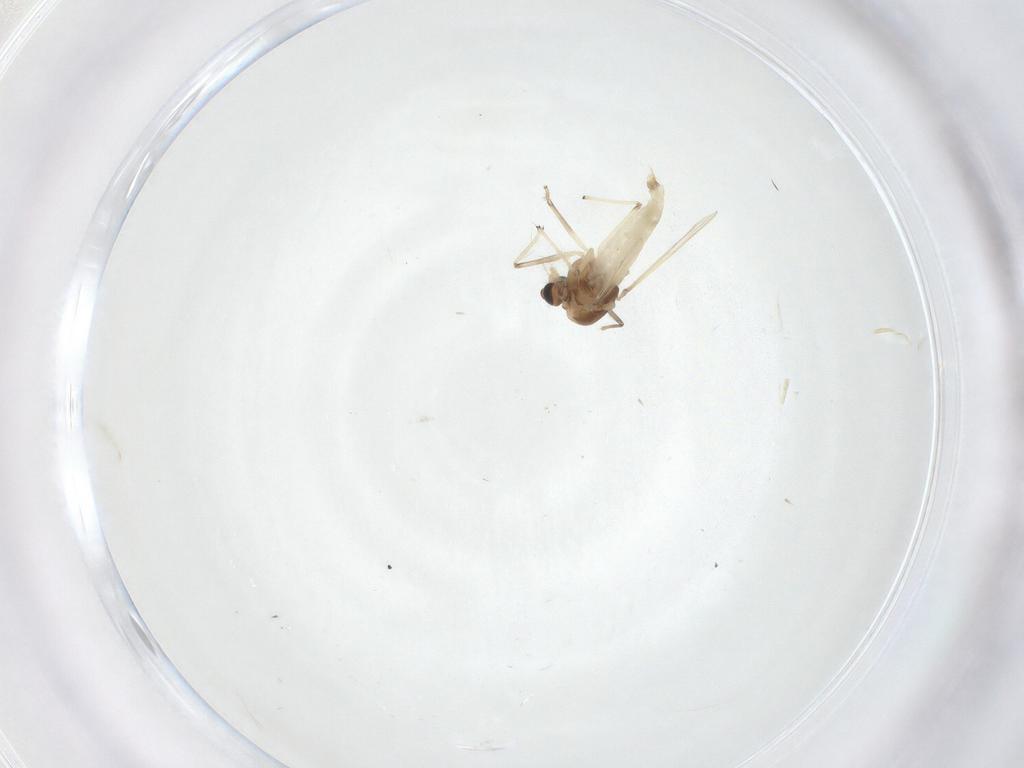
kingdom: Animalia
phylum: Arthropoda
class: Insecta
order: Diptera
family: Chironomidae
